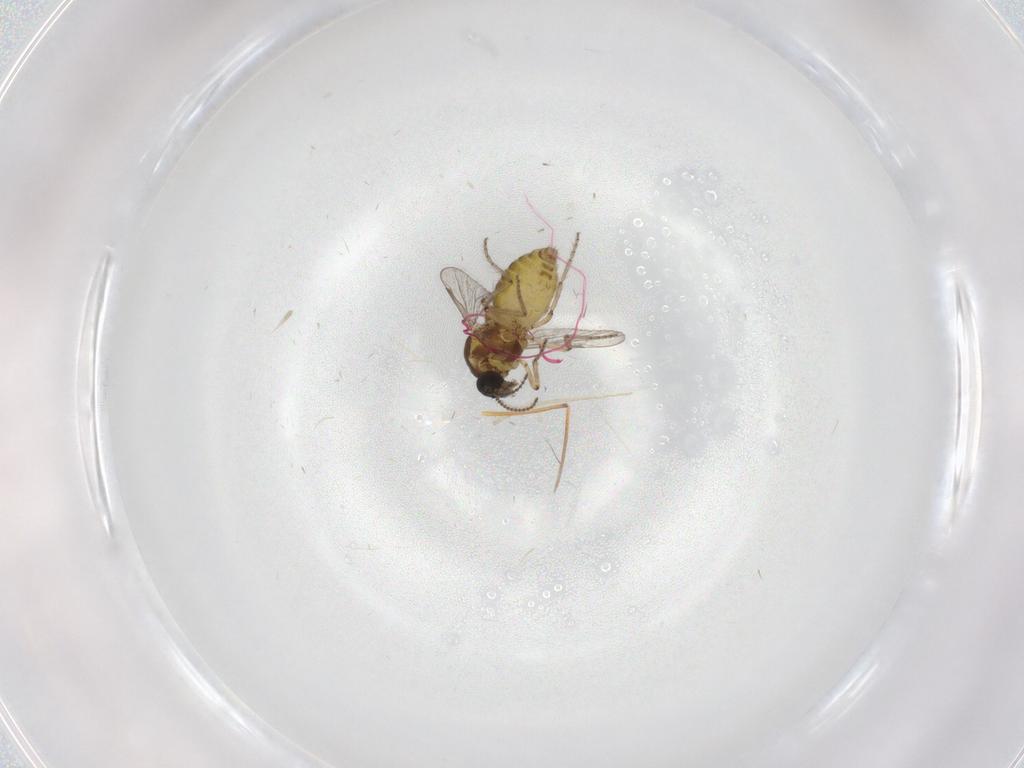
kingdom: Animalia
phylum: Arthropoda
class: Insecta
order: Diptera
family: Ceratopogonidae
